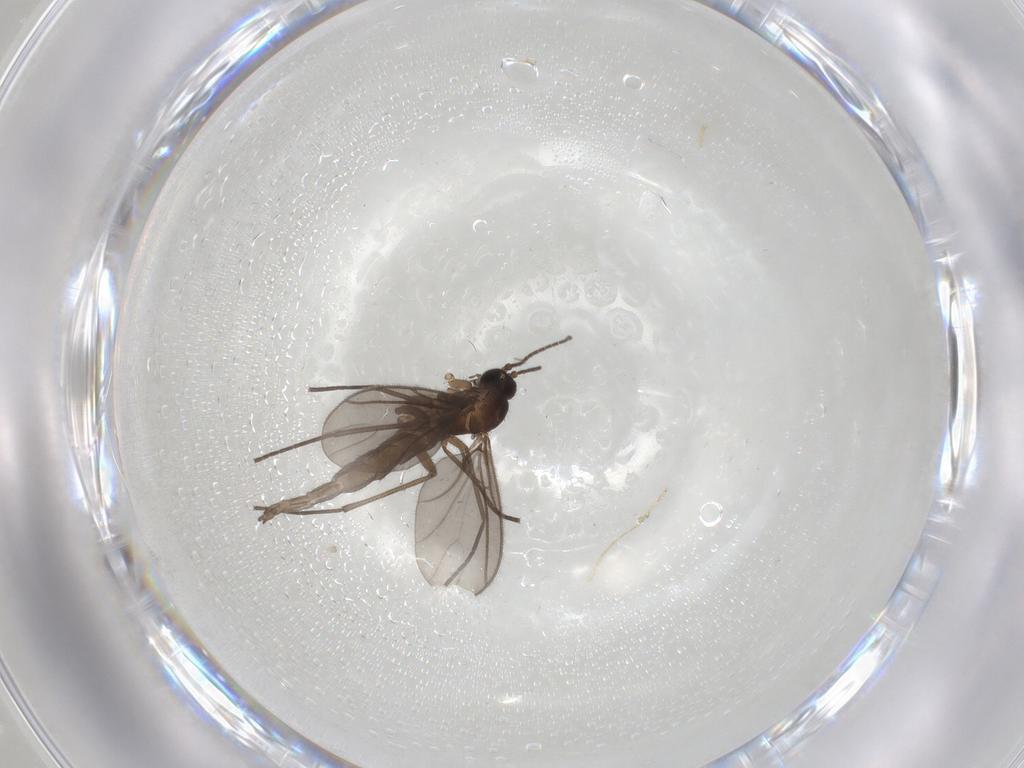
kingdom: Animalia
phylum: Arthropoda
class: Insecta
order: Diptera
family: Sciaridae
